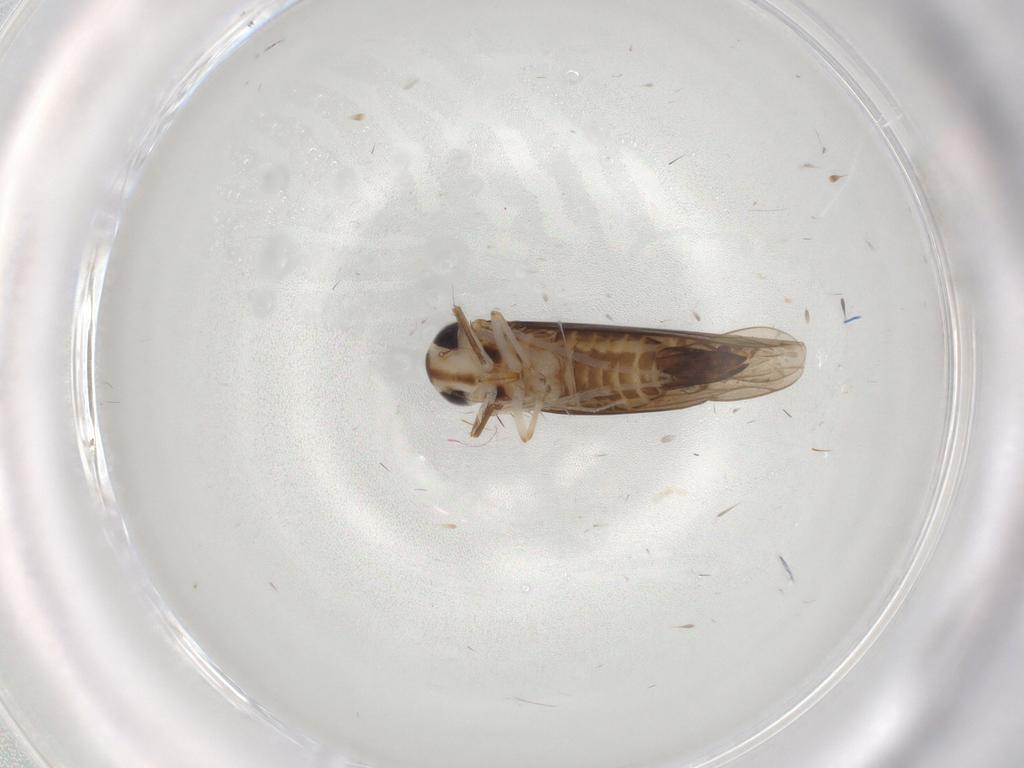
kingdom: Animalia
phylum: Arthropoda
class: Insecta
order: Hemiptera
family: Cicadellidae
